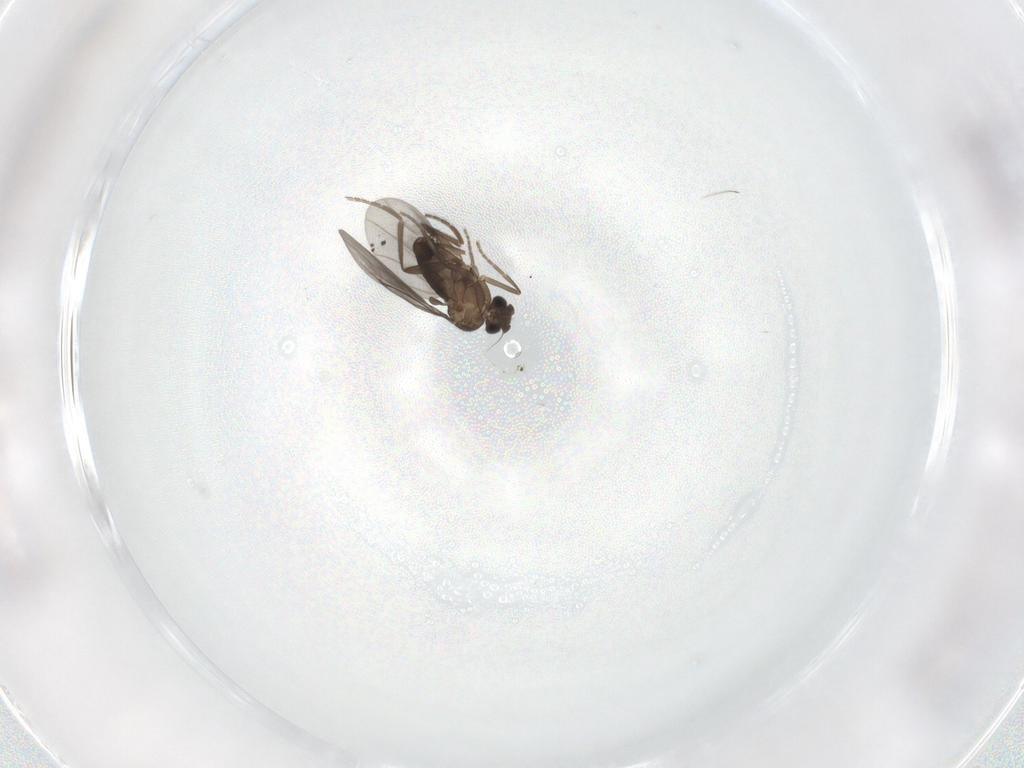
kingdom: Animalia
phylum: Arthropoda
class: Insecta
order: Diptera
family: Phoridae
